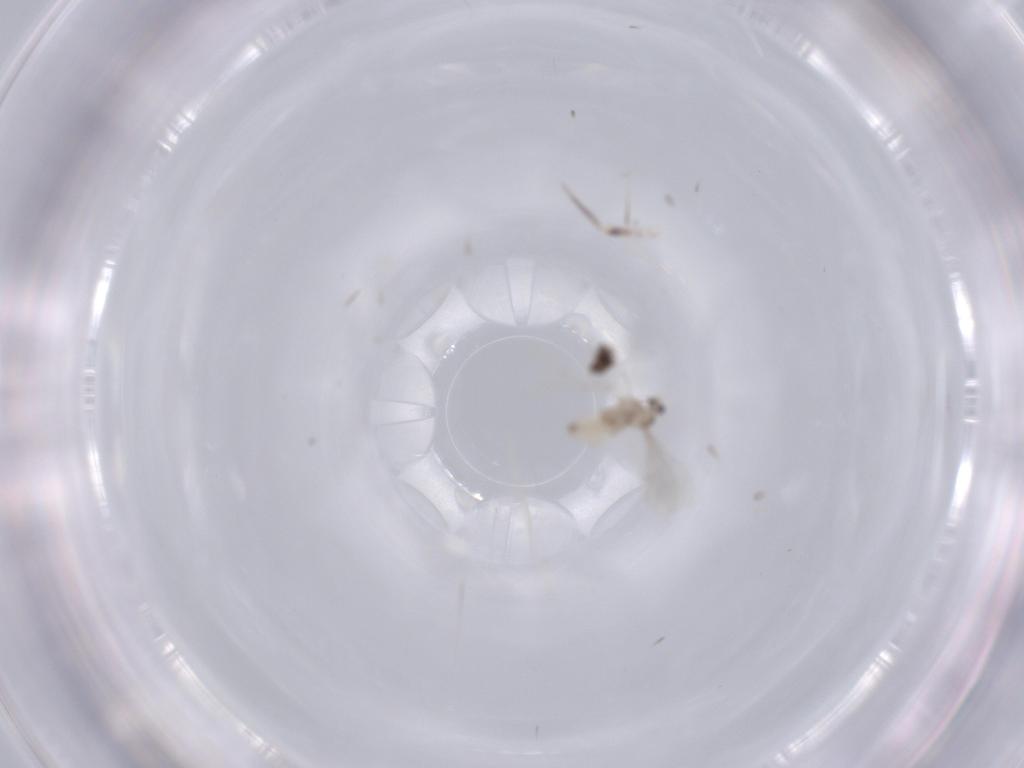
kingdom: Animalia
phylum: Arthropoda
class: Insecta
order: Diptera
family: Cecidomyiidae
